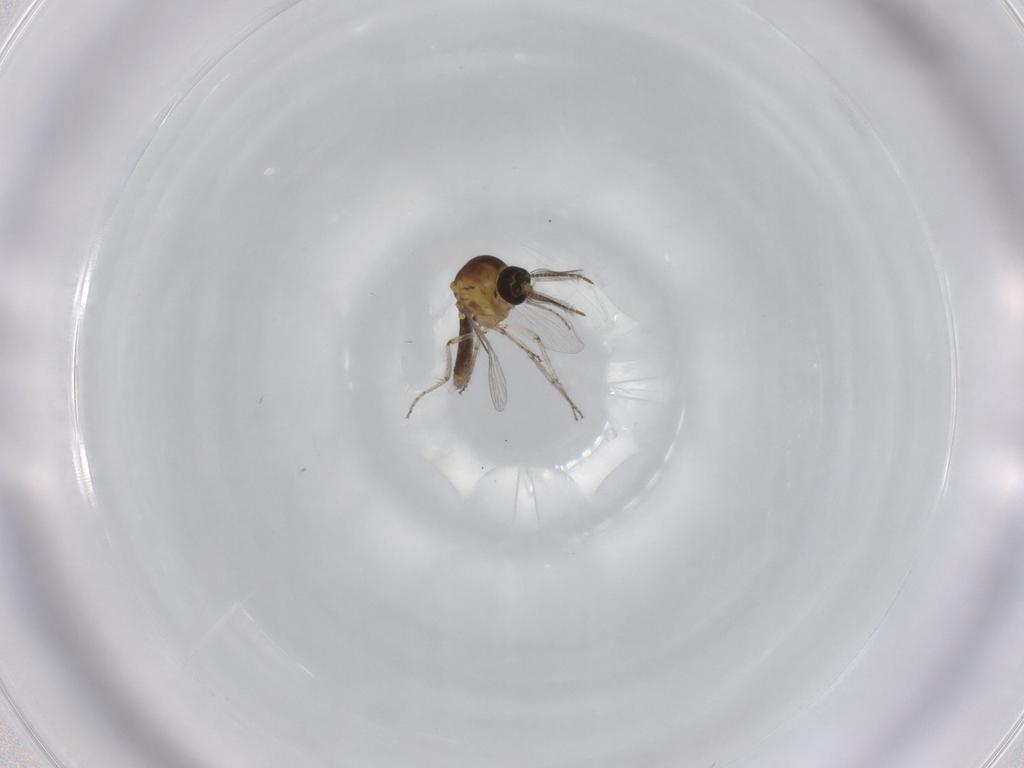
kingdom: Animalia
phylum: Arthropoda
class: Insecta
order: Diptera
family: Ceratopogonidae
